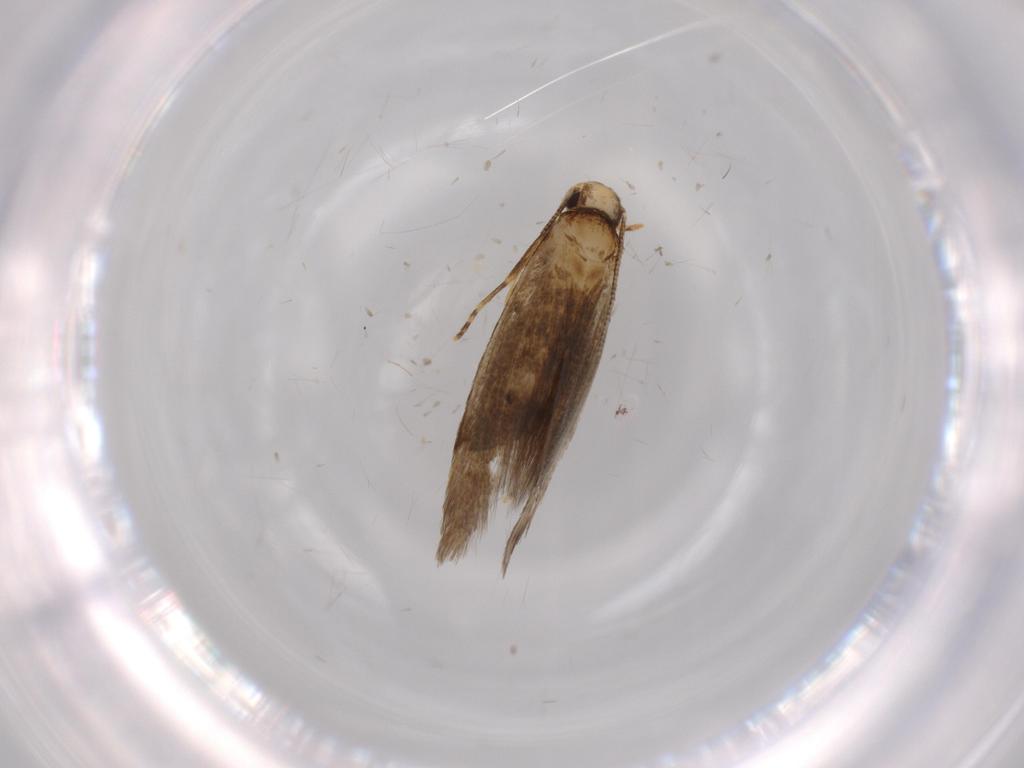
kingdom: Animalia
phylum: Arthropoda
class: Insecta
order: Lepidoptera
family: Tineidae
